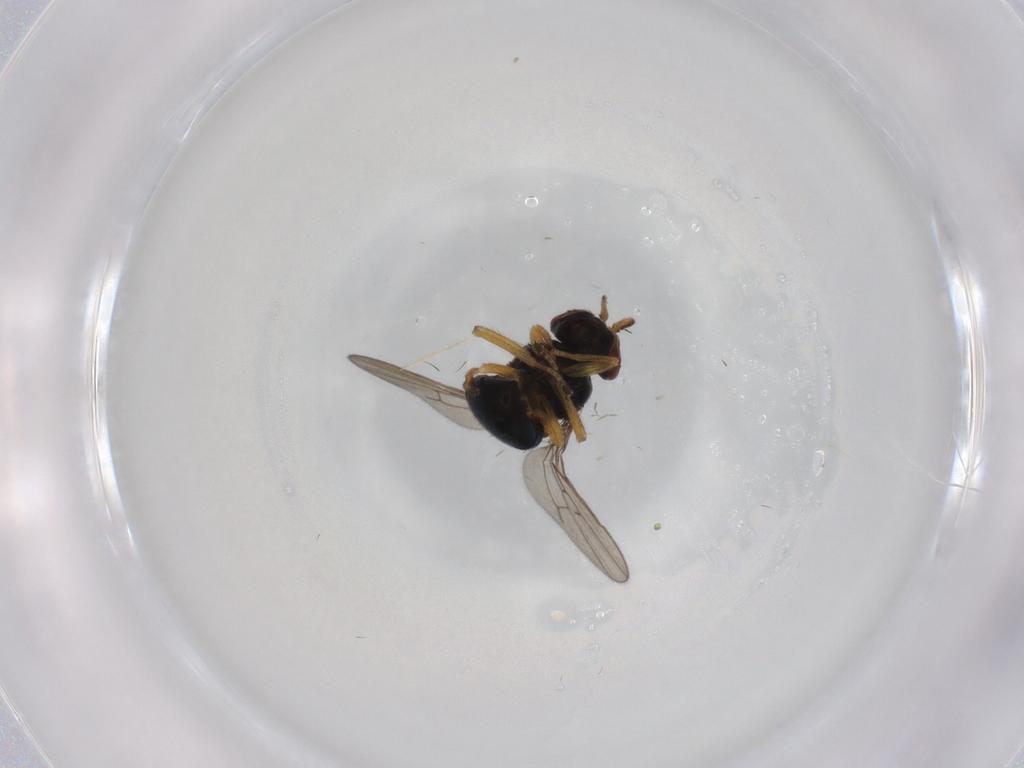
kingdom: Animalia
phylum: Arthropoda
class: Insecta
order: Diptera
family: Ephydridae
